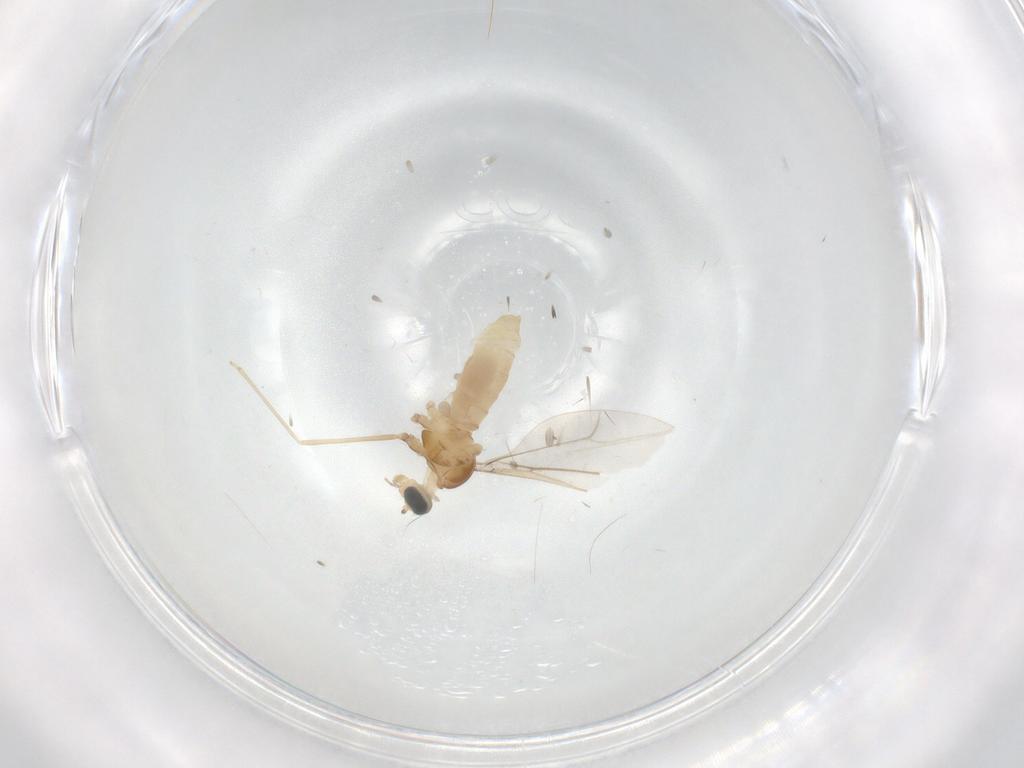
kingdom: Animalia
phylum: Arthropoda
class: Insecta
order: Diptera
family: Cecidomyiidae
